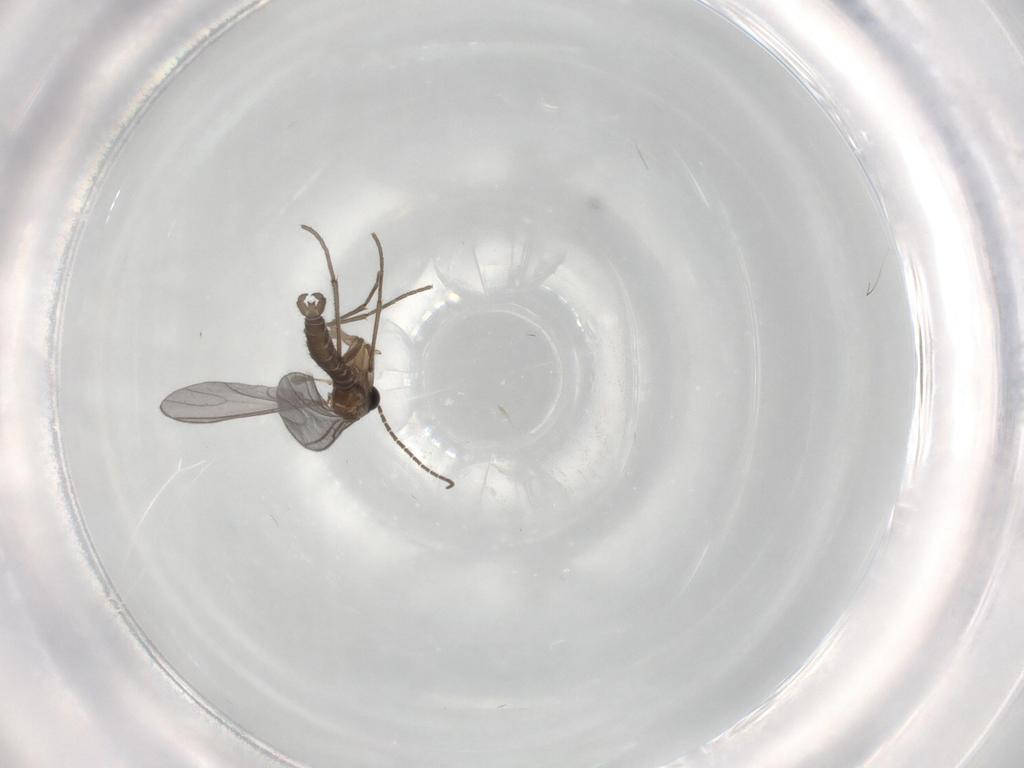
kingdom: Animalia
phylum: Arthropoda
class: Insecta
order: Diptera
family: Sciaridae
